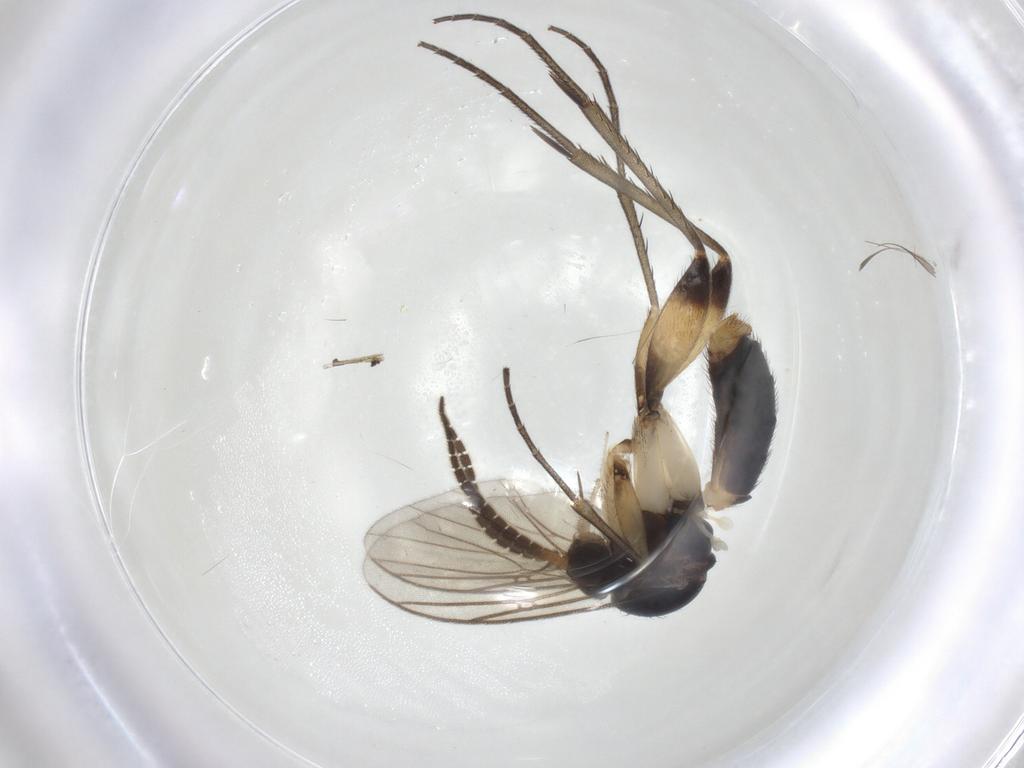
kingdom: Animalia
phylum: Arthropoda
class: Insecta
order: Diptera
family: Mycetophilidae
